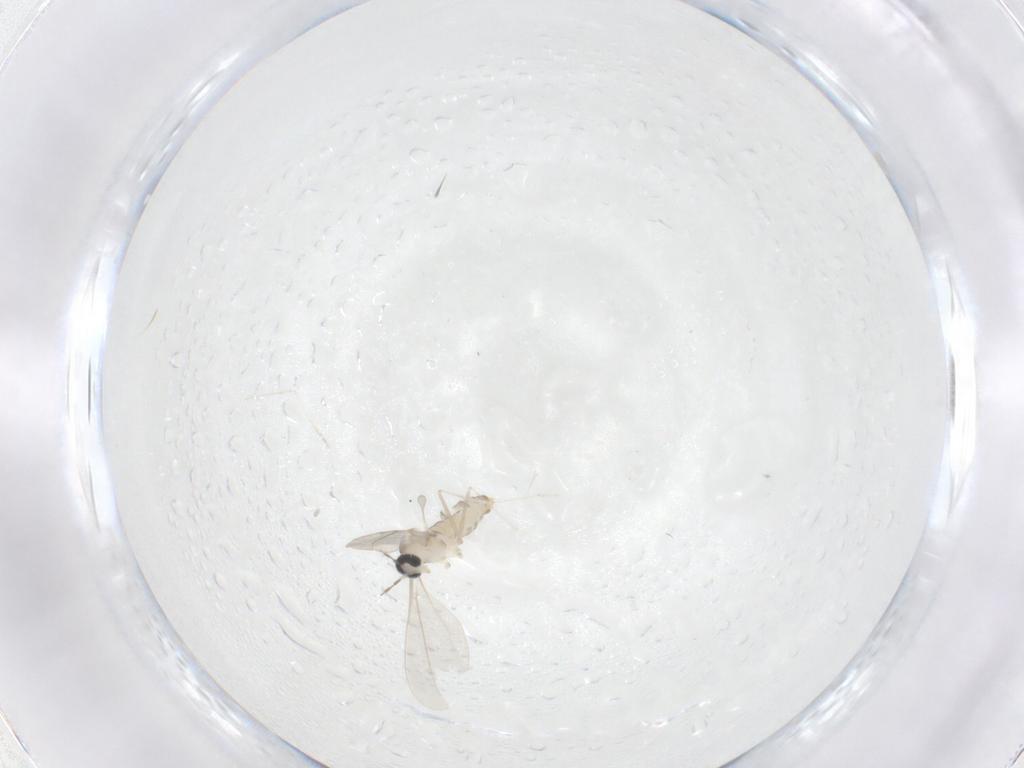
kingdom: Animalia
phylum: Arthropoda
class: Insecta
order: Diptera
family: Cecidomyiidae
